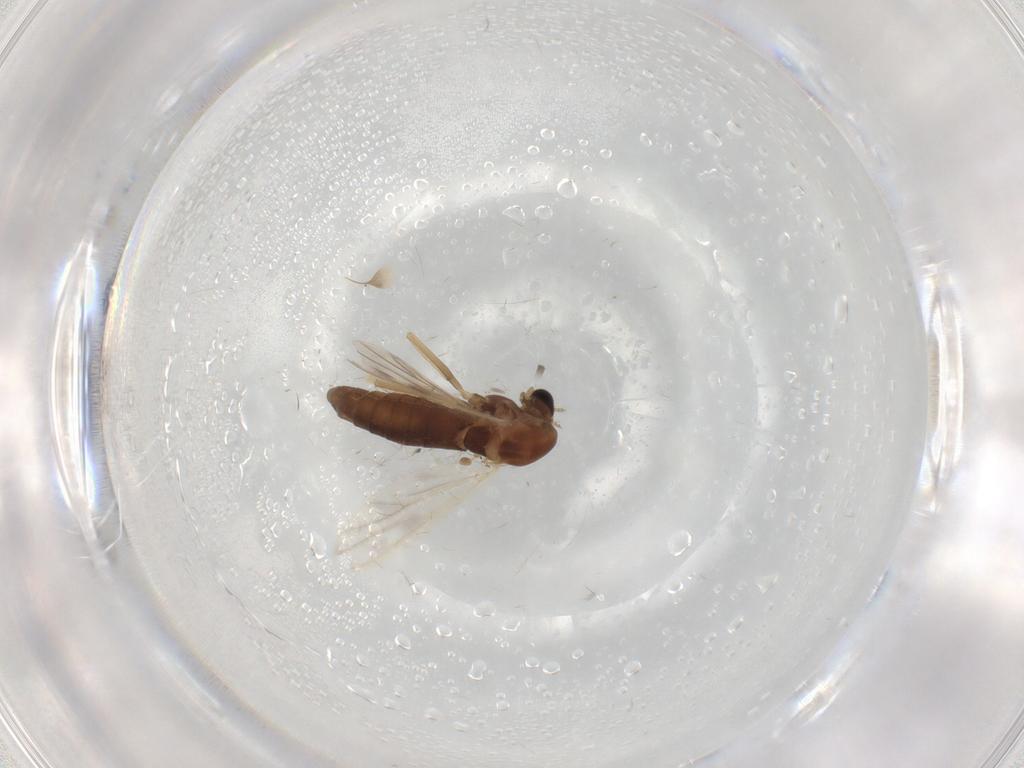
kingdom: Animalia
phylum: Arthropoda
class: Insecta
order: Diptera
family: Chironomidae
